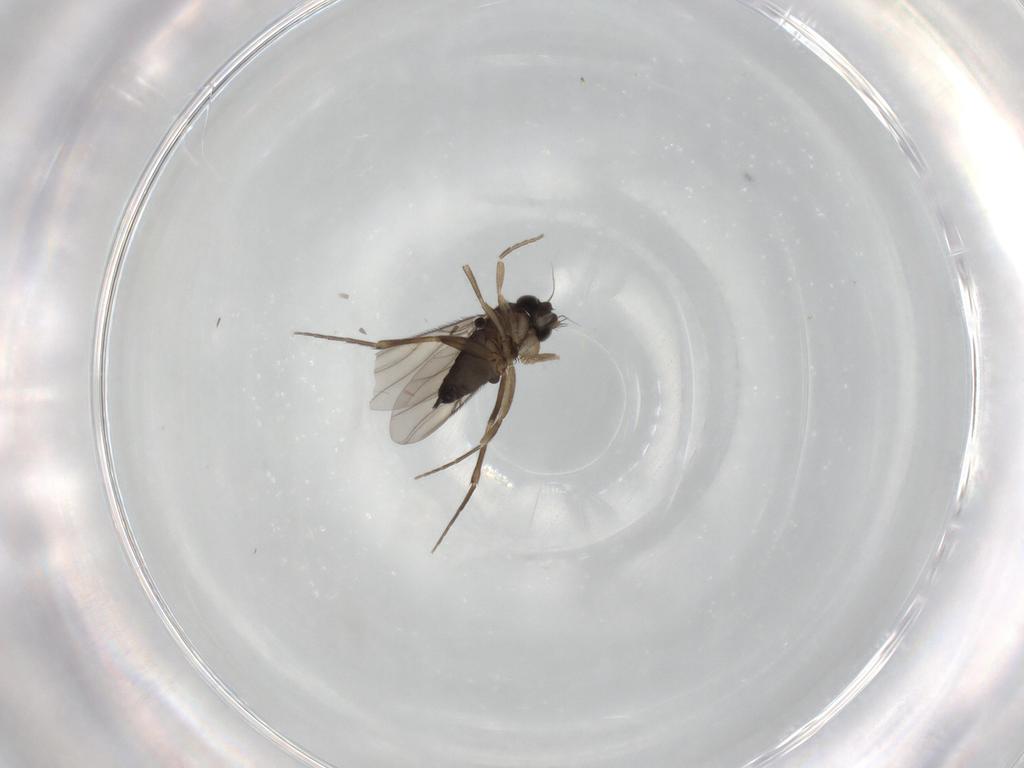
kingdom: Animalia
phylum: Arthropoda
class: Insecta
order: Diptera
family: Phoridae
